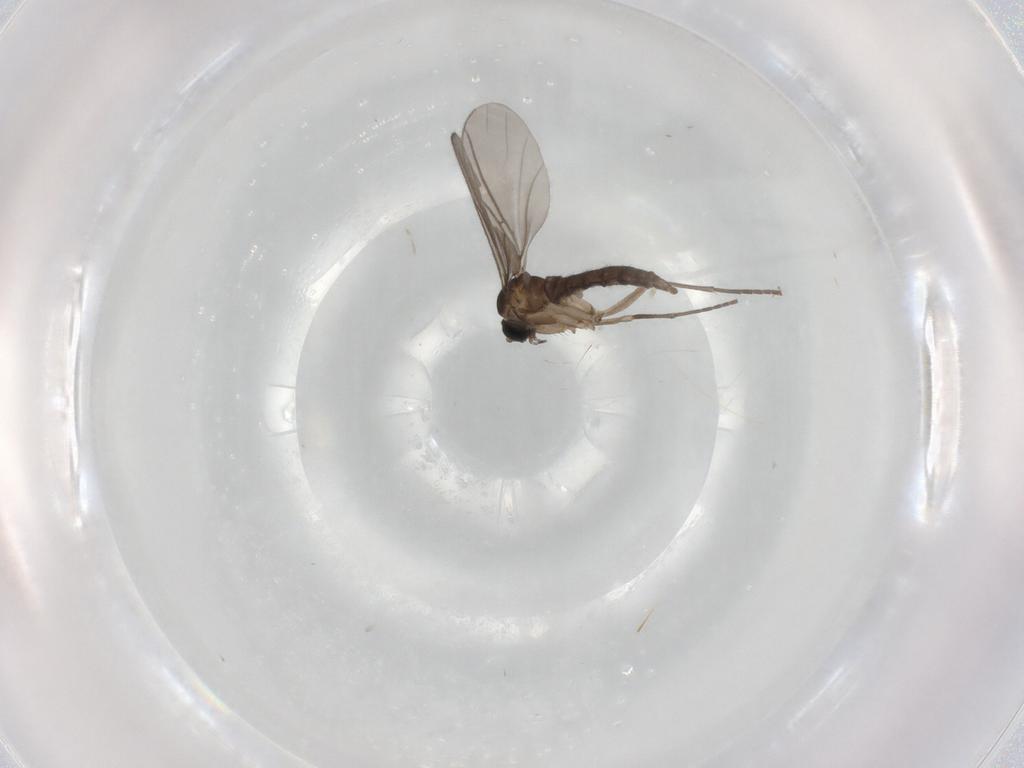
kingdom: Animalia
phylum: Arthropoda
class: Insecta
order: Diptera
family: Sciaridae
